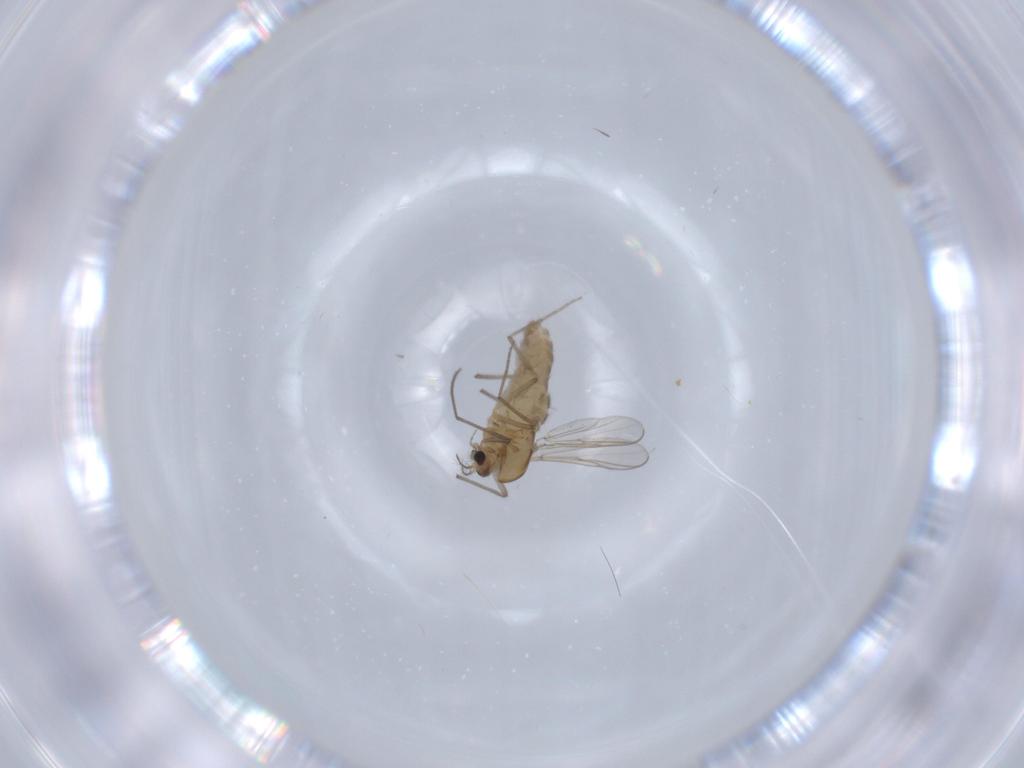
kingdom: Animalia
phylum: Arthropoda
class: Insecta
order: Diptera
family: Chironomidae
